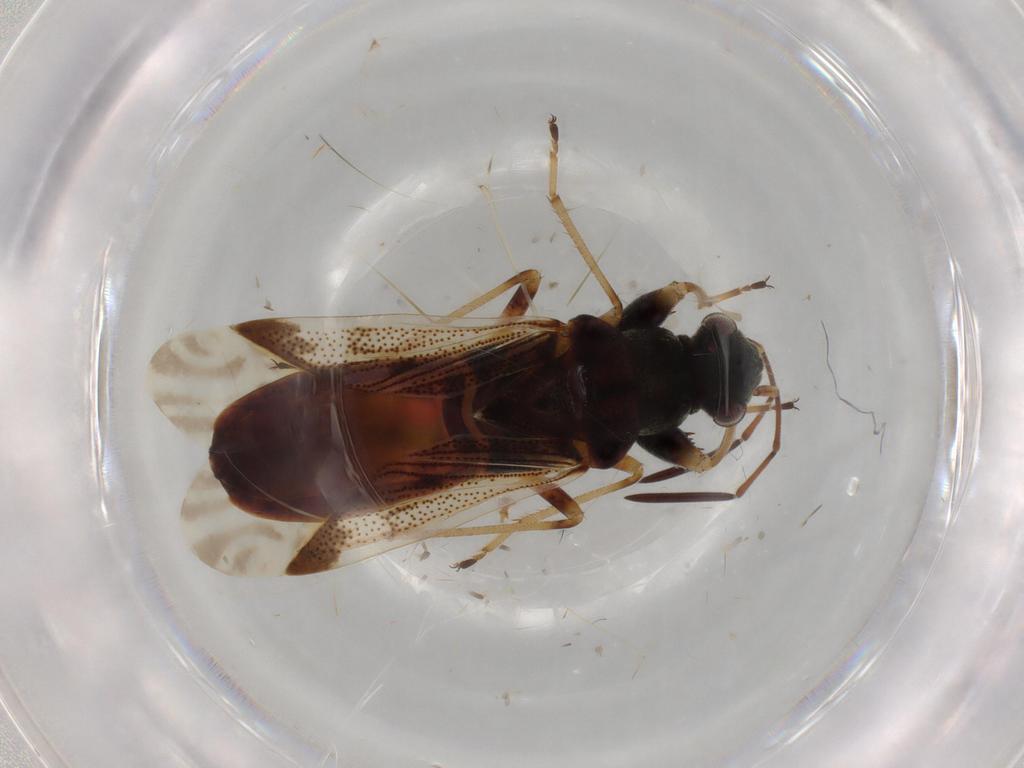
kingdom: Animalia
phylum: Arthropoda
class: Insecta
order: Hemiptera
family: Rhyparochromidae
